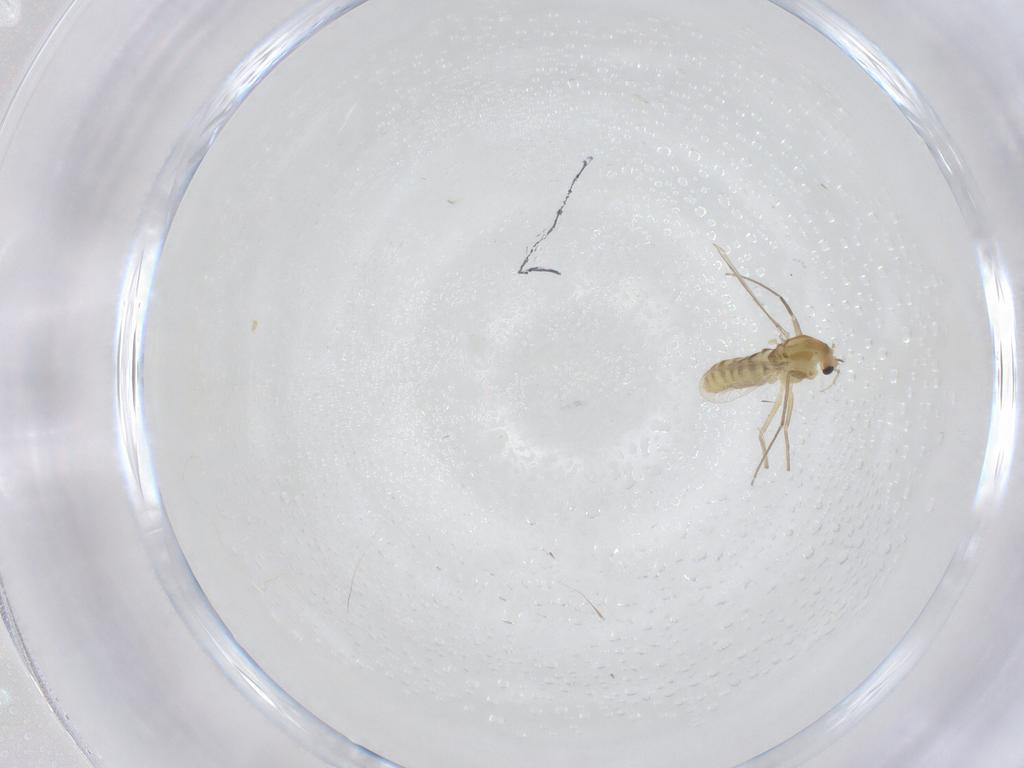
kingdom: Animalia
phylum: Arthropoda
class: Insecta
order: Diptera
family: Chironomidae
